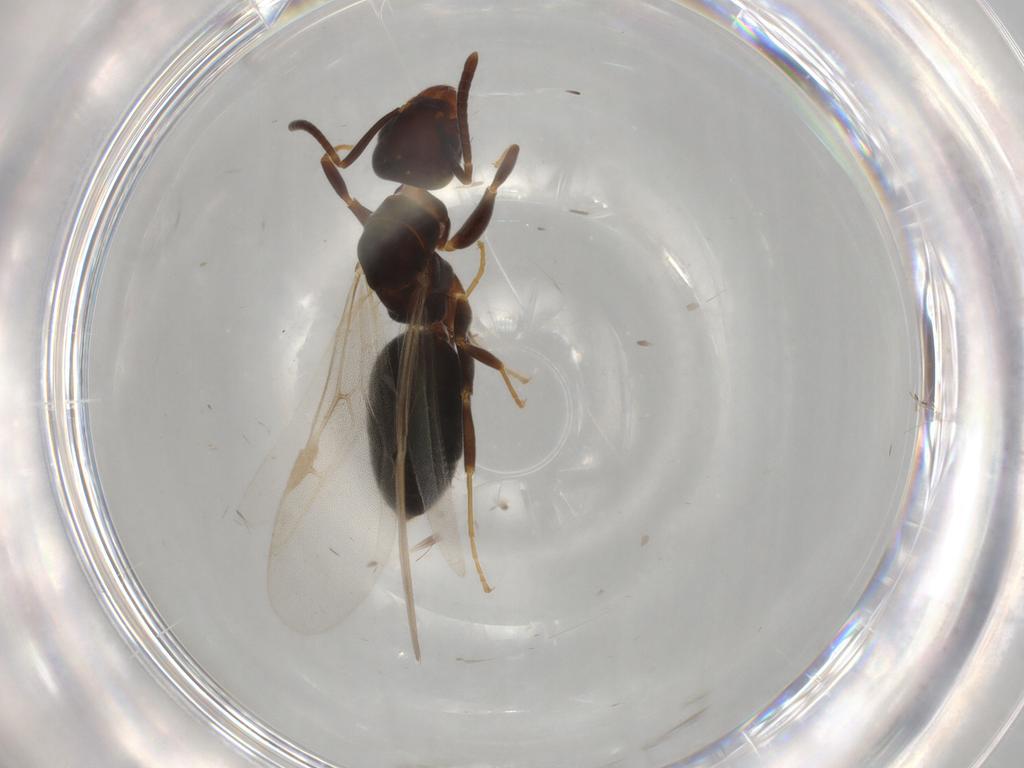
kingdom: Animalia
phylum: Arthropoda
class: Insecta
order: Hymenoptera
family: Formicidae
